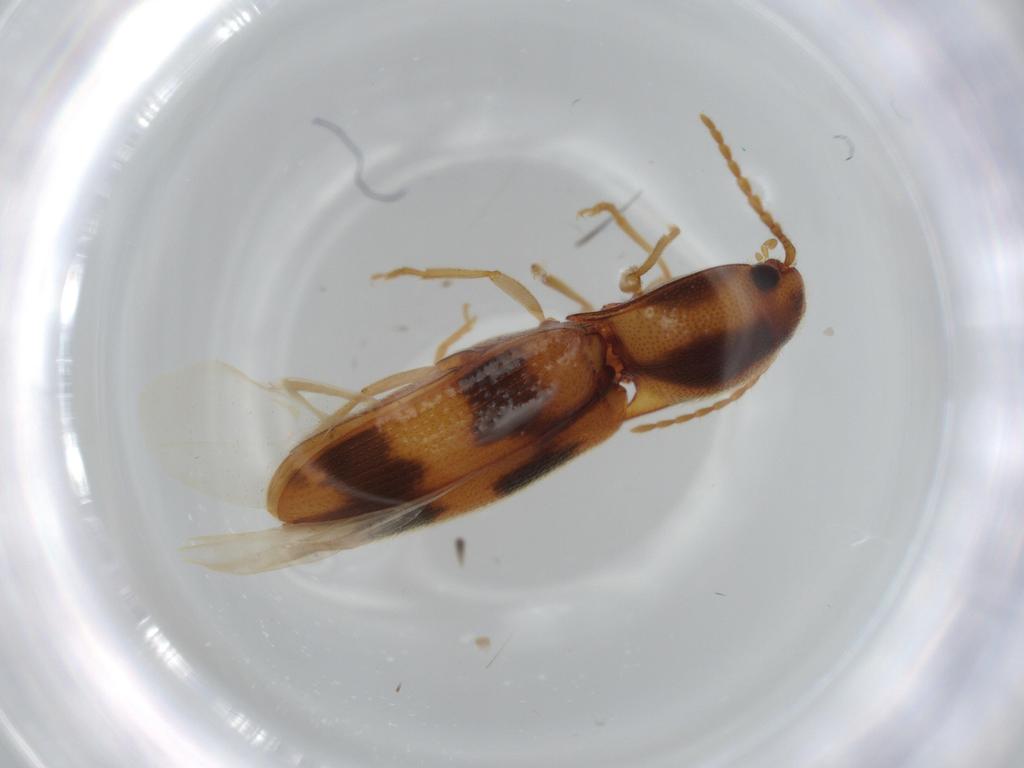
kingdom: Animalia
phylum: Arthropoda
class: Insecta
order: Coleoptera
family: Elateridae
